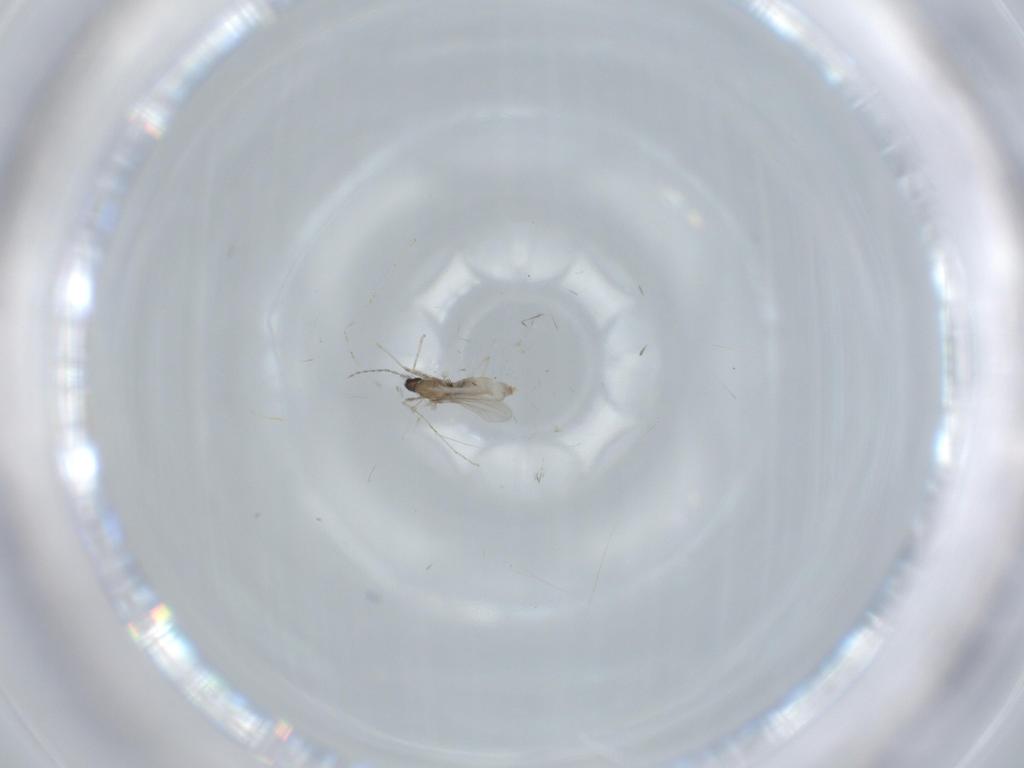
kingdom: Animalia
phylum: Arthropoda
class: Insecta
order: Diptera
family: Cecidomyiidae
